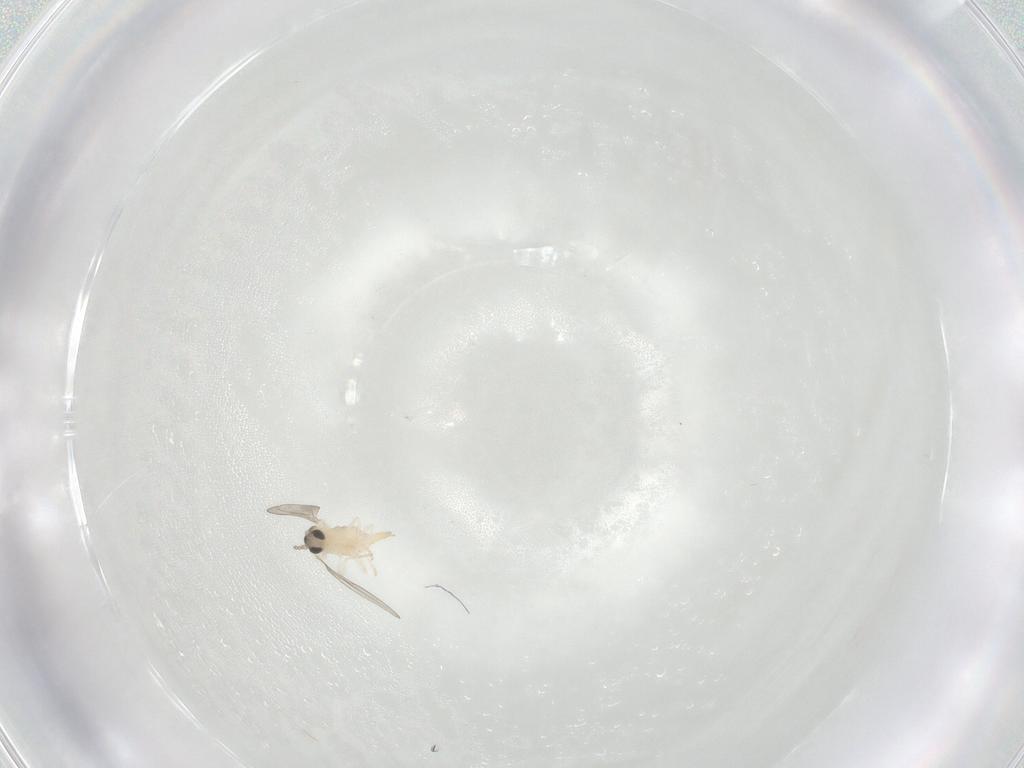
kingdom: Animalia
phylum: Arthropoda
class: Insecta
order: Diptera
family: Cecidomyiidae
